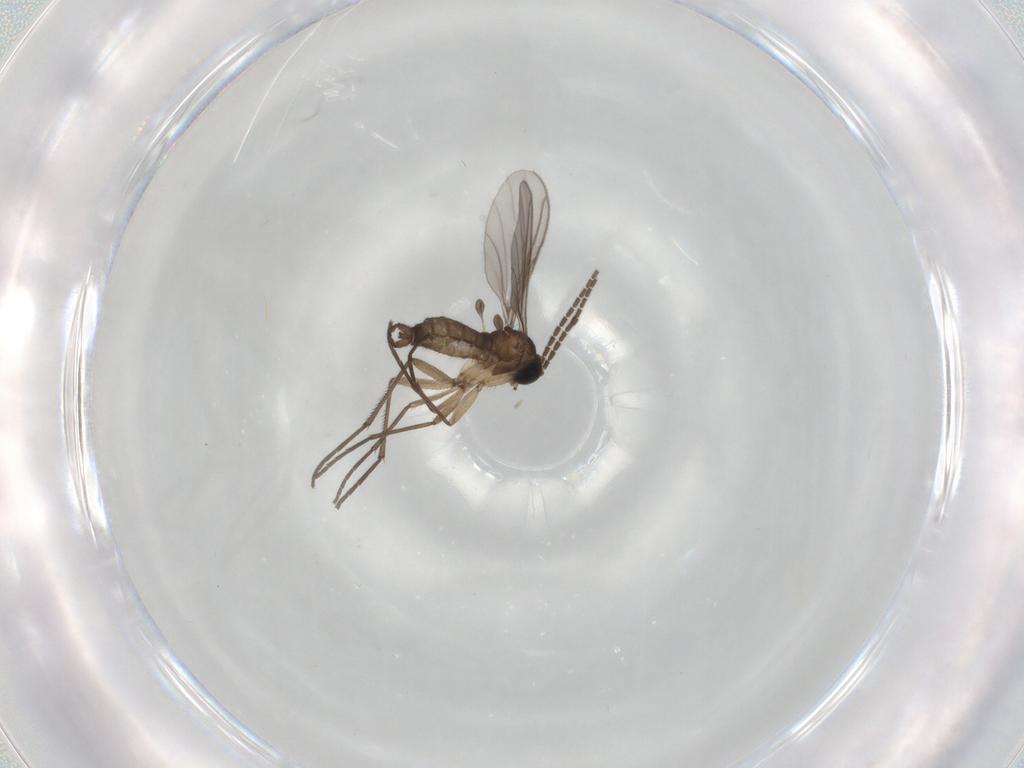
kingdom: Animalia
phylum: Arthropoda
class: Insecta
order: Diptera
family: Sciaridae
